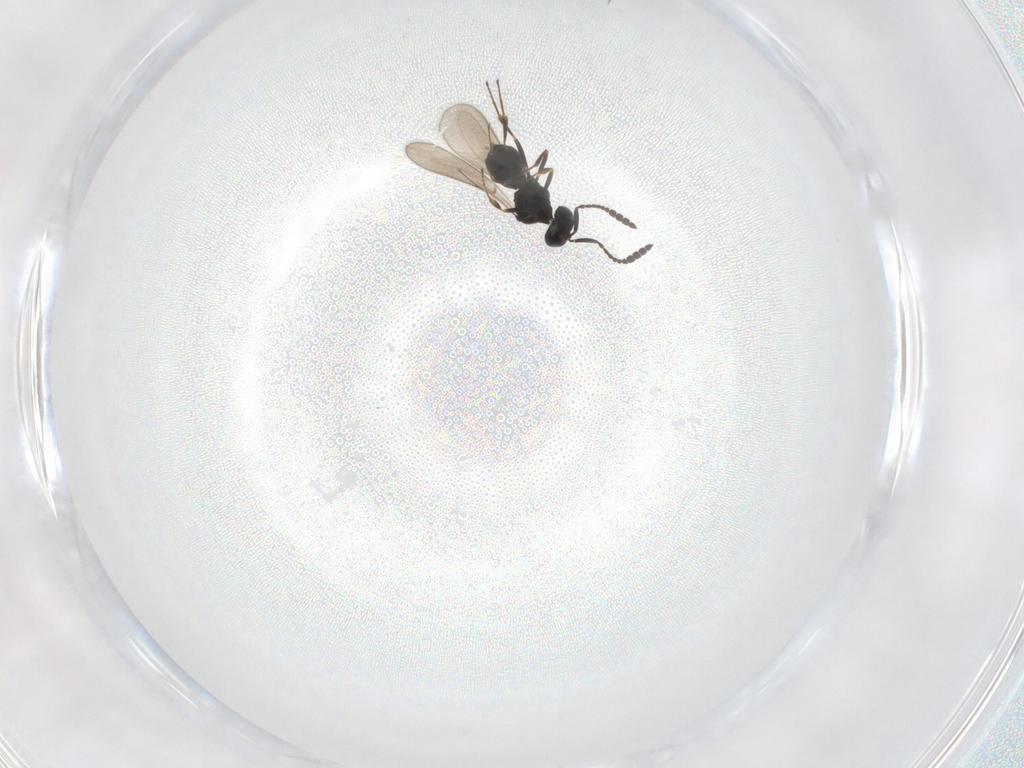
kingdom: Animalia
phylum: Arthropoda
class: Insecta
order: Hymenoptera
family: Scelionidae
